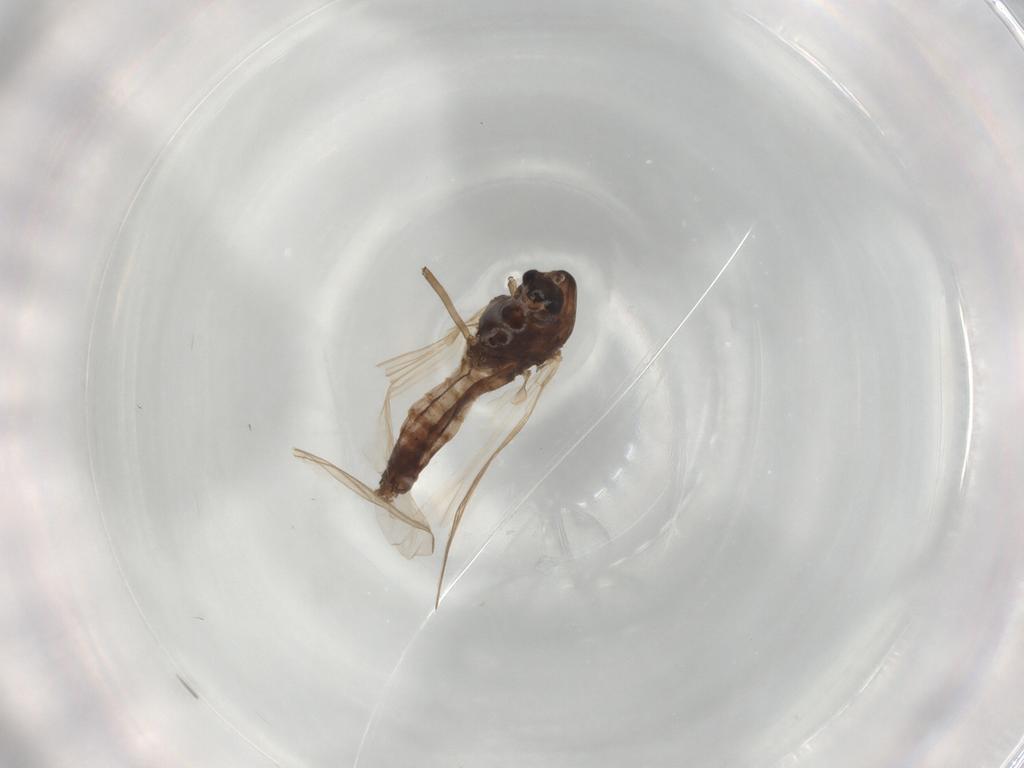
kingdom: Animalia
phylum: Arthropoda
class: Insecta
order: Diptera
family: Chironomidae
